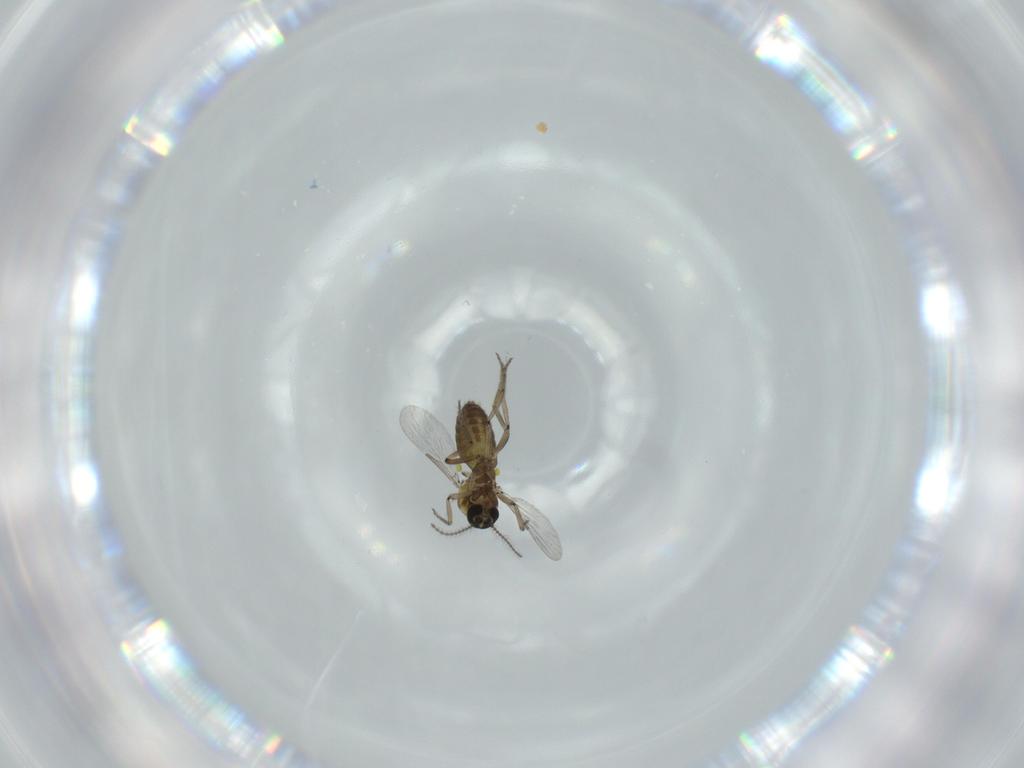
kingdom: Animalia
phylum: Arthropoda
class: Insecta
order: Diptera
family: Ceratopogonidae
